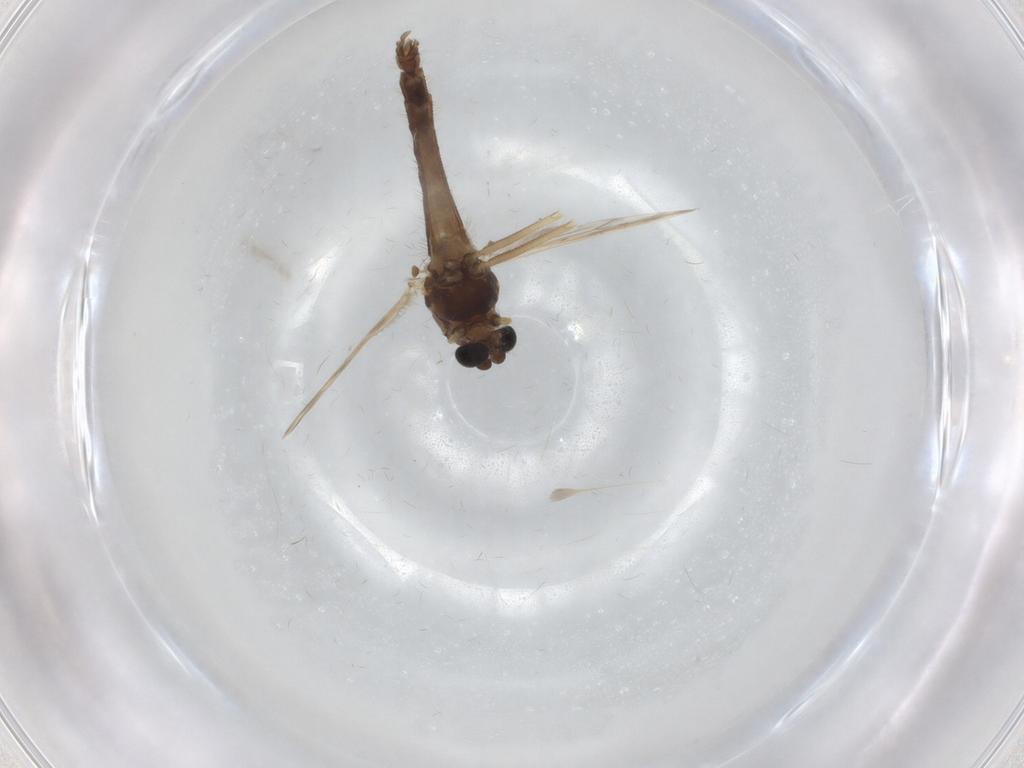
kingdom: Animalia
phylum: Arthropoda
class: Insecta
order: Diptera
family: Chironomidae
